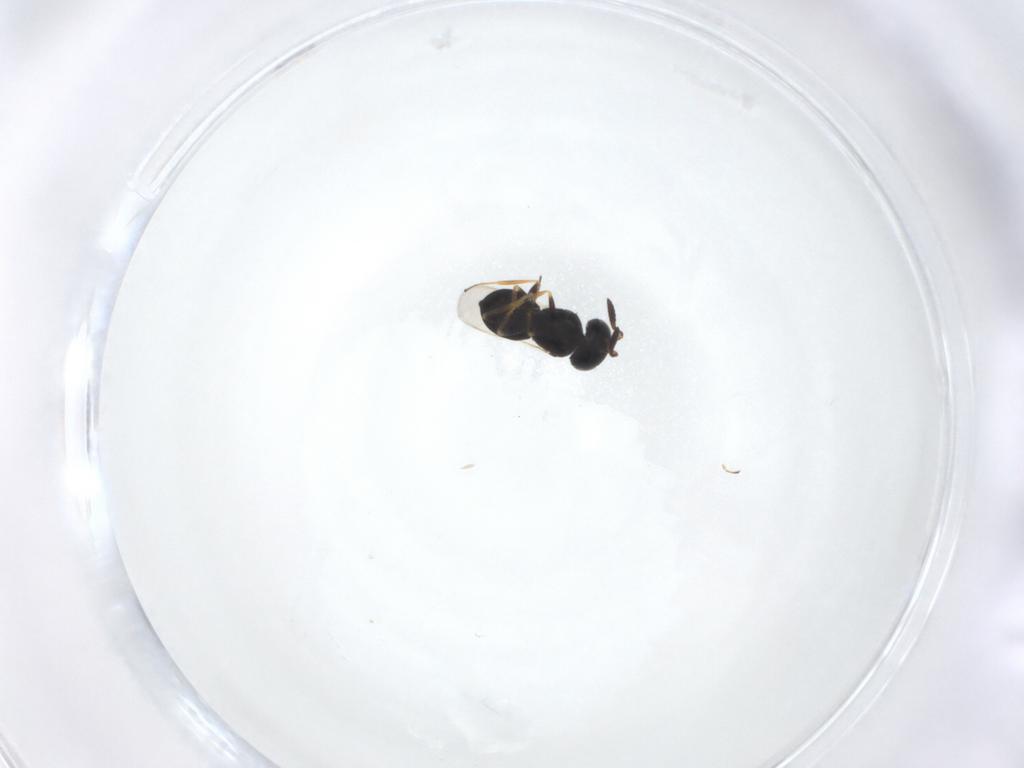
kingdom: Animalia
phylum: Arthropoda
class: Insecta
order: Hymenoptera
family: Scelionidae
